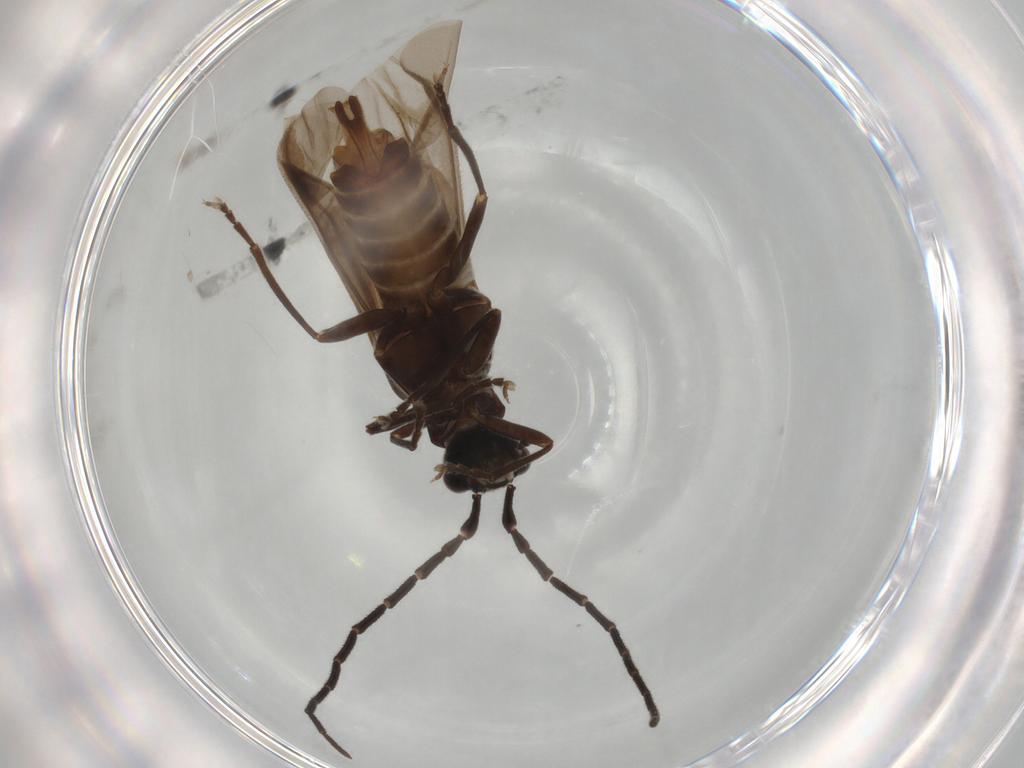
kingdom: Animalia
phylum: Arthropoda
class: Insecta
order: Coleoptera
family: Cantharidae
